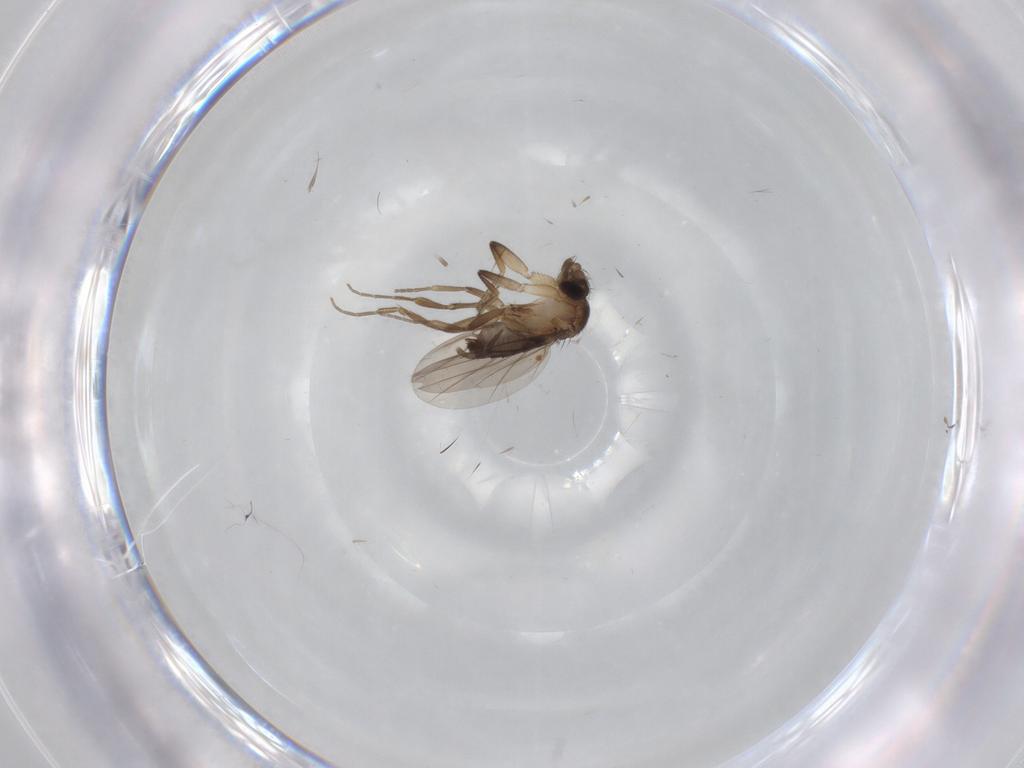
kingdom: Animalia
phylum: Arthropoda
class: Insecta
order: Diptera
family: Phoridae
